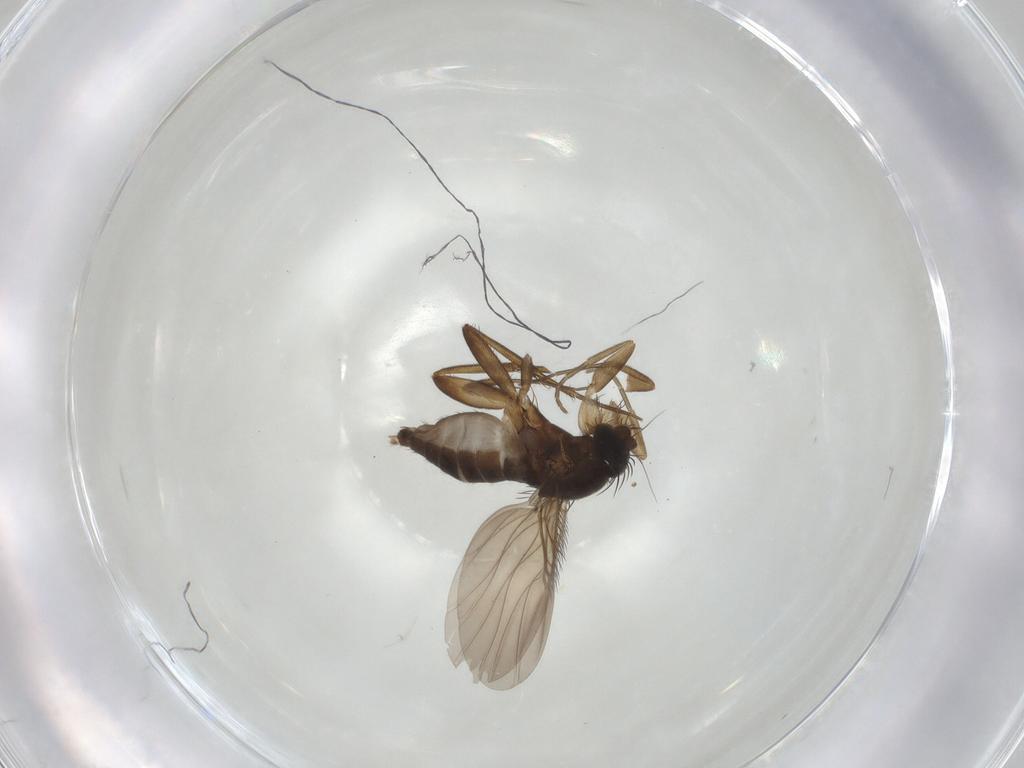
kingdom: Animalia
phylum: Arthropoda
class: Insecta
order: Diptera
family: Phoridae
